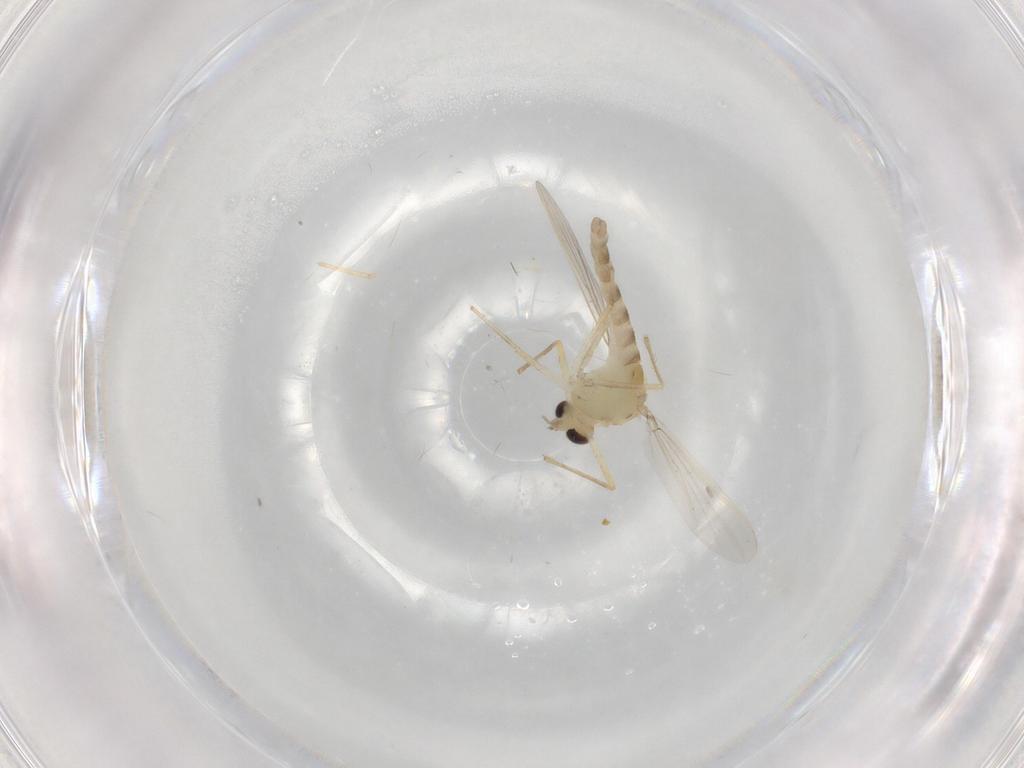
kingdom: Animalia
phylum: Arthropoda
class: Insecta
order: Diptera
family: Chironomidae
